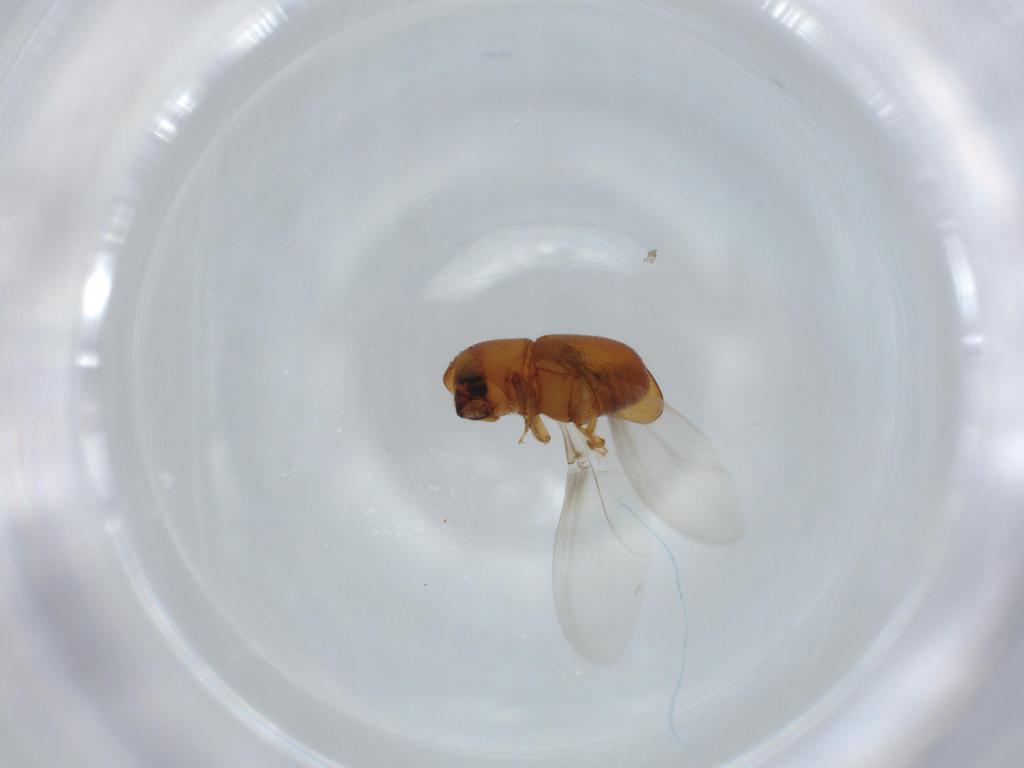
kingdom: Animalia
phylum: Arthropoda
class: Insecta
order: Coleoptera
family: Curculionidae
